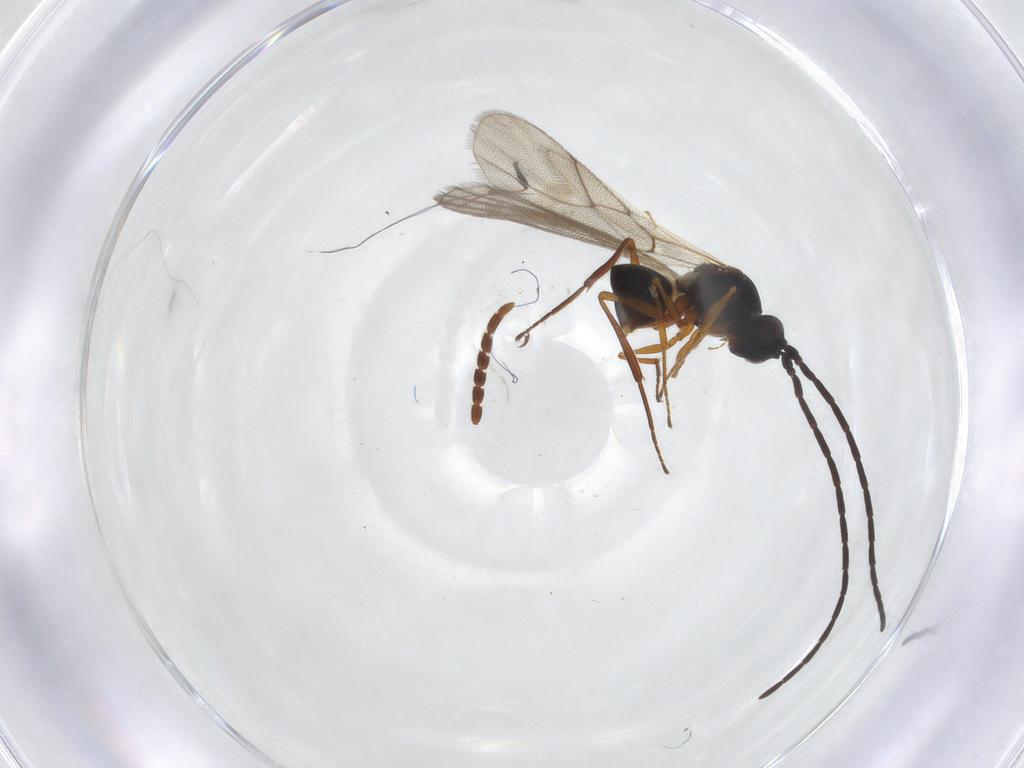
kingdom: Animalia
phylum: Arthropoda
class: Insecta
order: Hymenoptera
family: Figitidae
